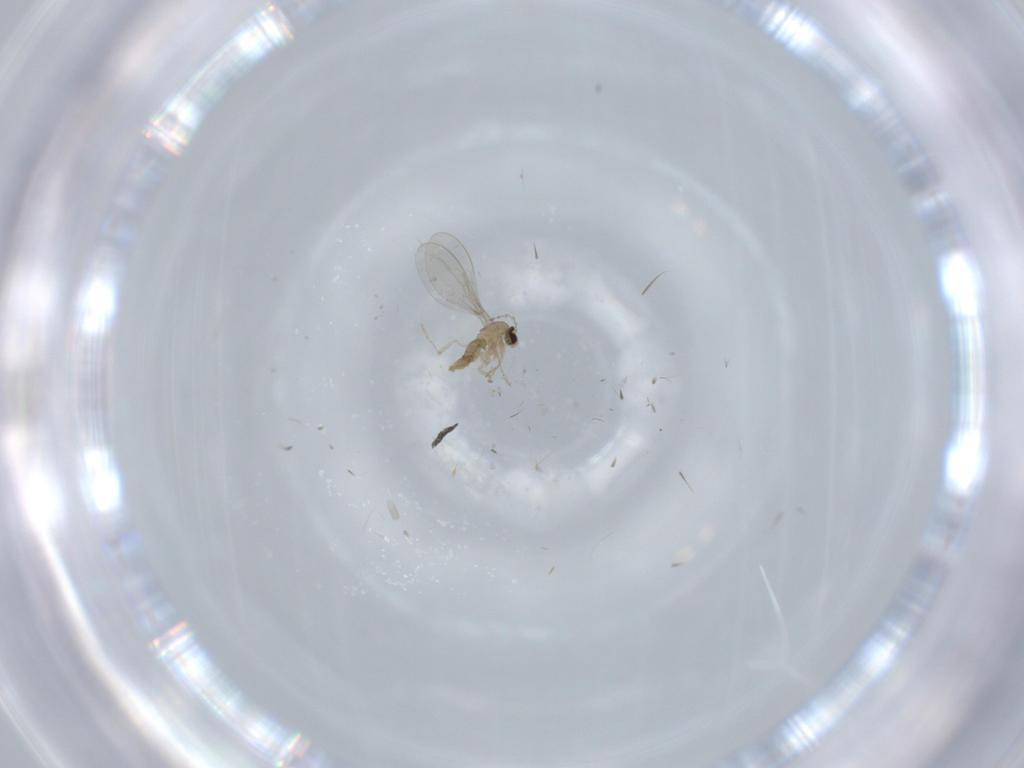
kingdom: Animalia
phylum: Arthropoda
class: Insecta
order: Diptera
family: Cecidomyiidae
